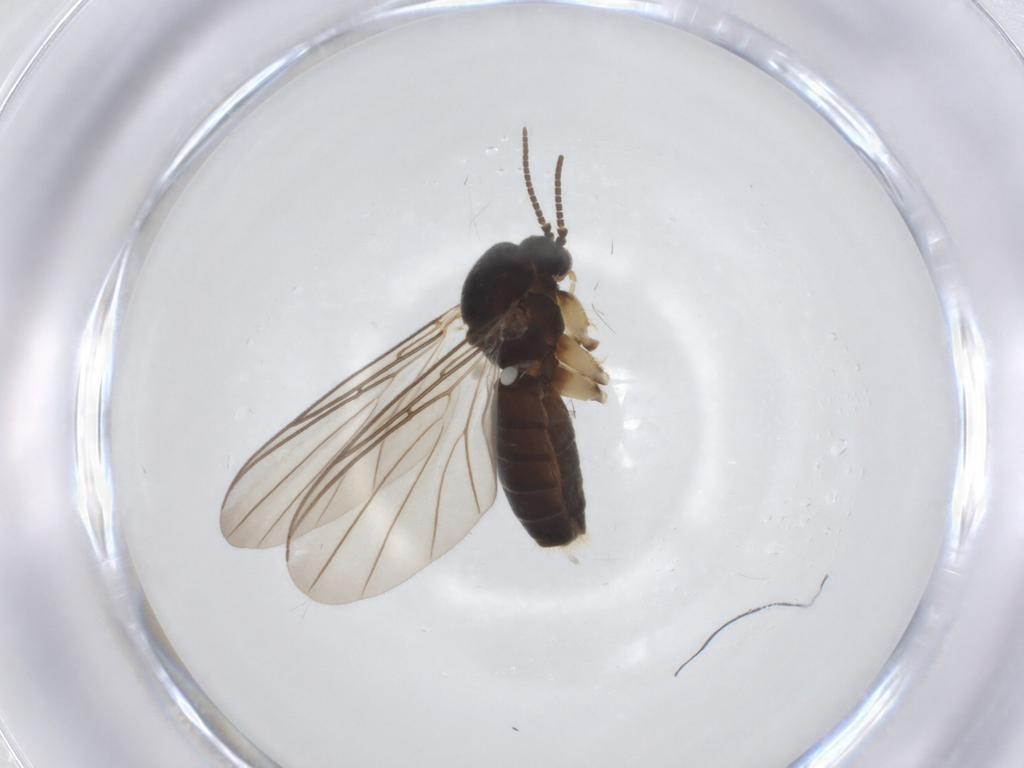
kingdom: Animalia
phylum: Arthropoda
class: Insecta
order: Diptera
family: Mycetophilidae
